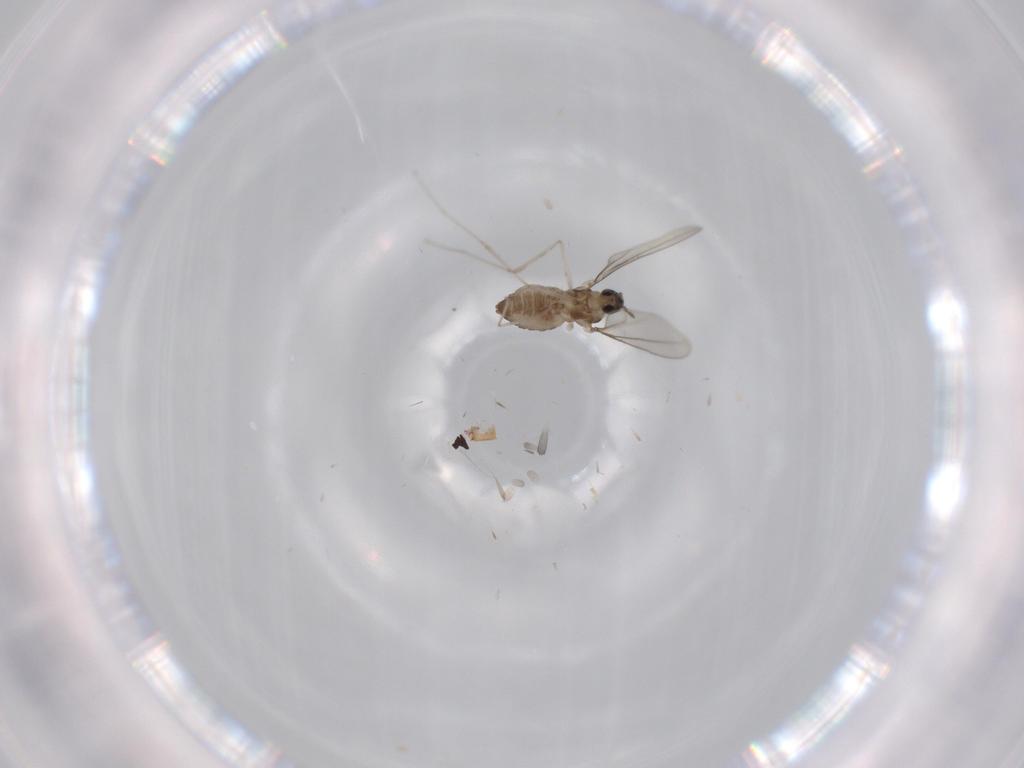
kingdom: Animalia
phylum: Arthropoda
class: Insecta
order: Diptera
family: Cecidomyiidae
